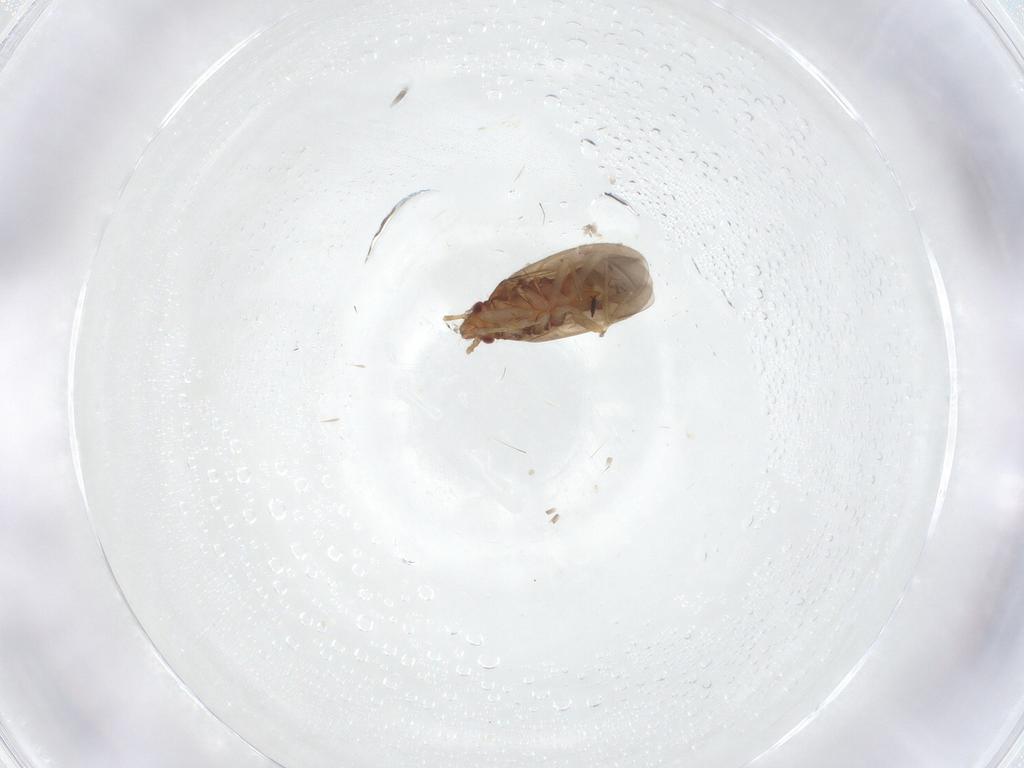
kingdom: Animalia
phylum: Arthropoda
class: Insecta
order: Hemiptera
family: Ceratocombidae
